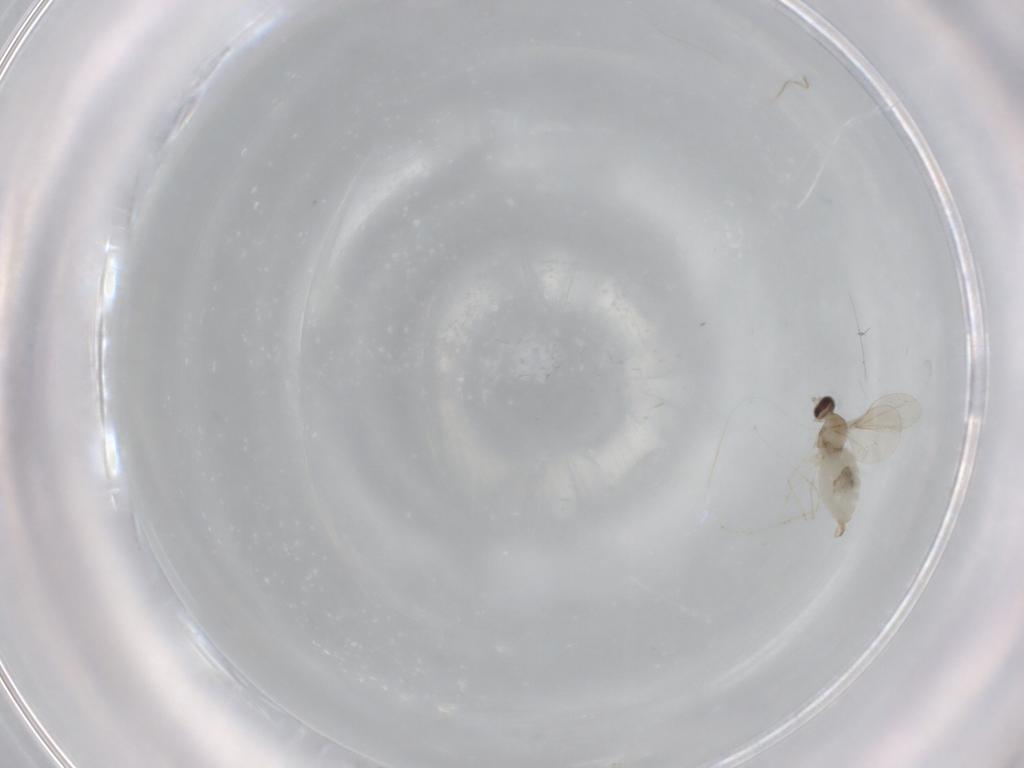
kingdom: Animalia
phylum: Arthropoda
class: Insecta
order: Diptera
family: Cecidomyiidae
